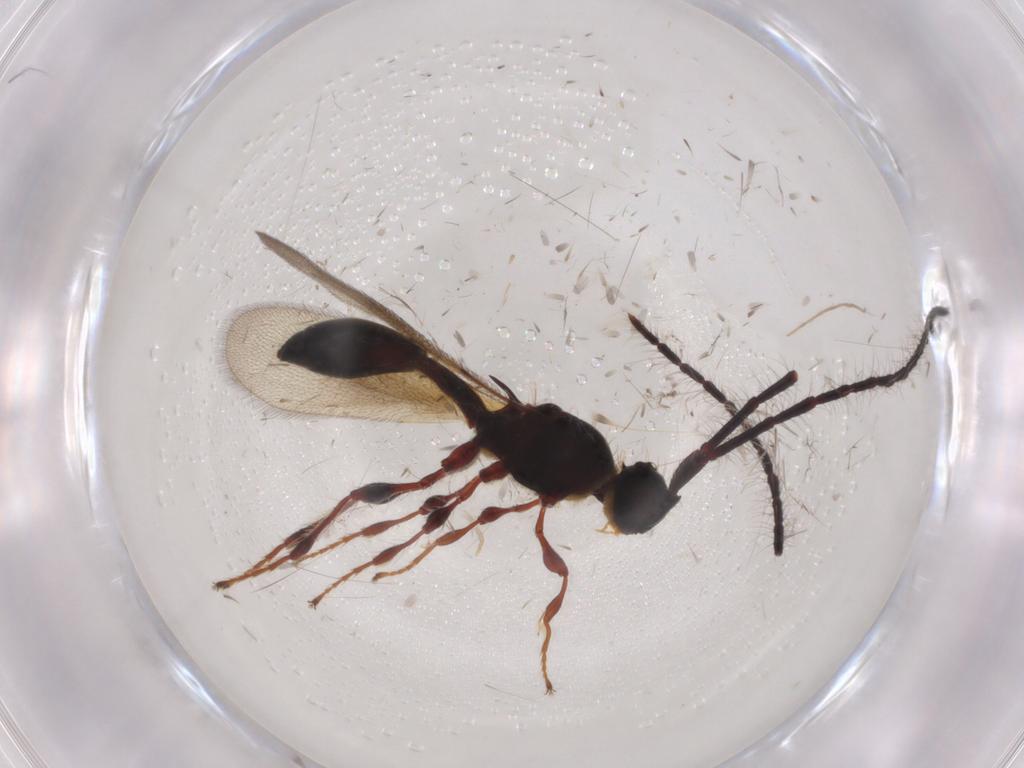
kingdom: Animalia
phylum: Arthropoda
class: Insecta
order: Hymenoptera
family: Diapriidae
